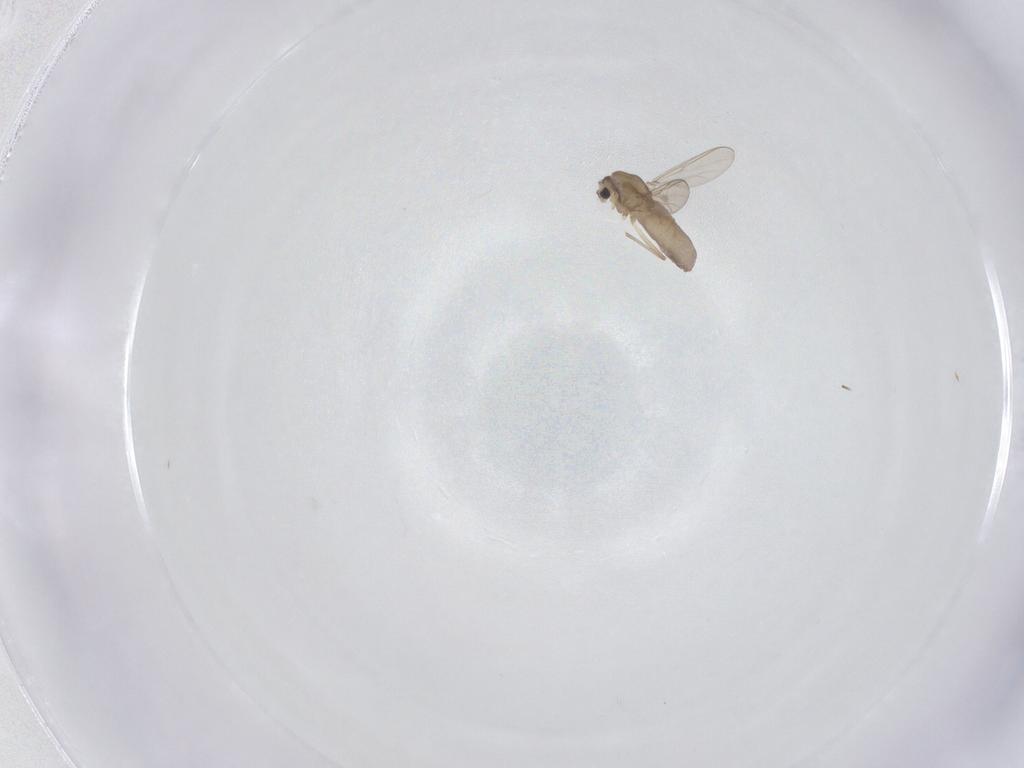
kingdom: Animalia
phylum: Arthropoda
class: Insecta
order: Diptera
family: Chironomidae
